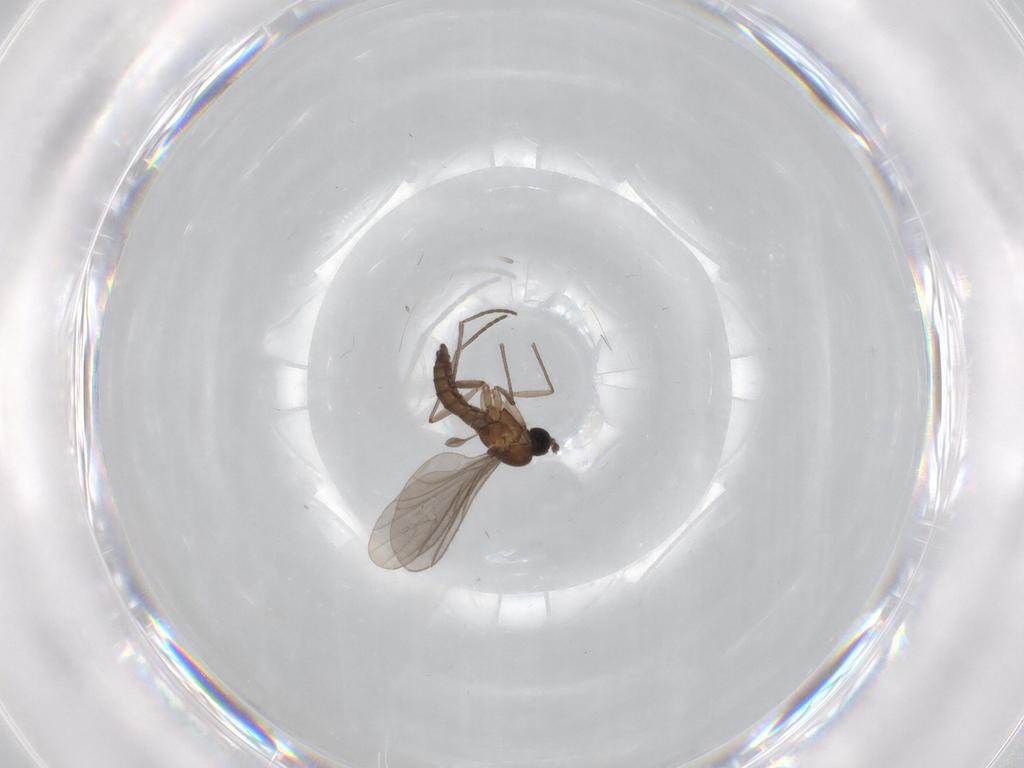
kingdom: Animalia
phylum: Arthropoda
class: Insecta
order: Diptera
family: Sciaridae
